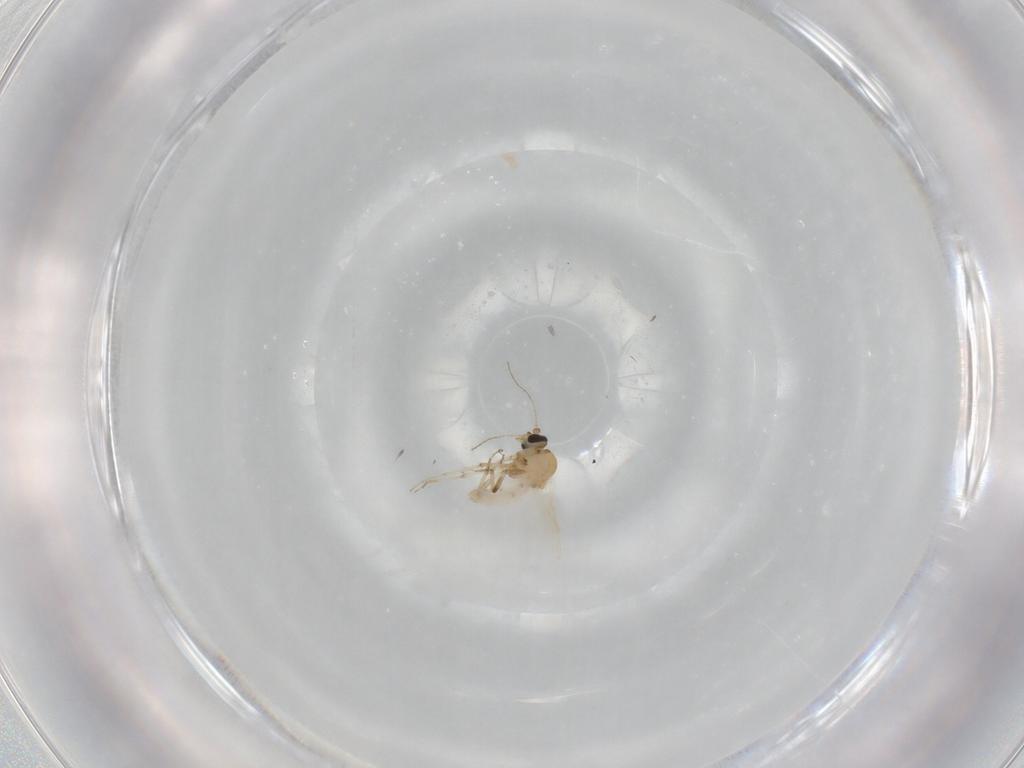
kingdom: Animalia
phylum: Arthropoda
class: Insecta
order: Diptera
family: Ceratopogonidae
